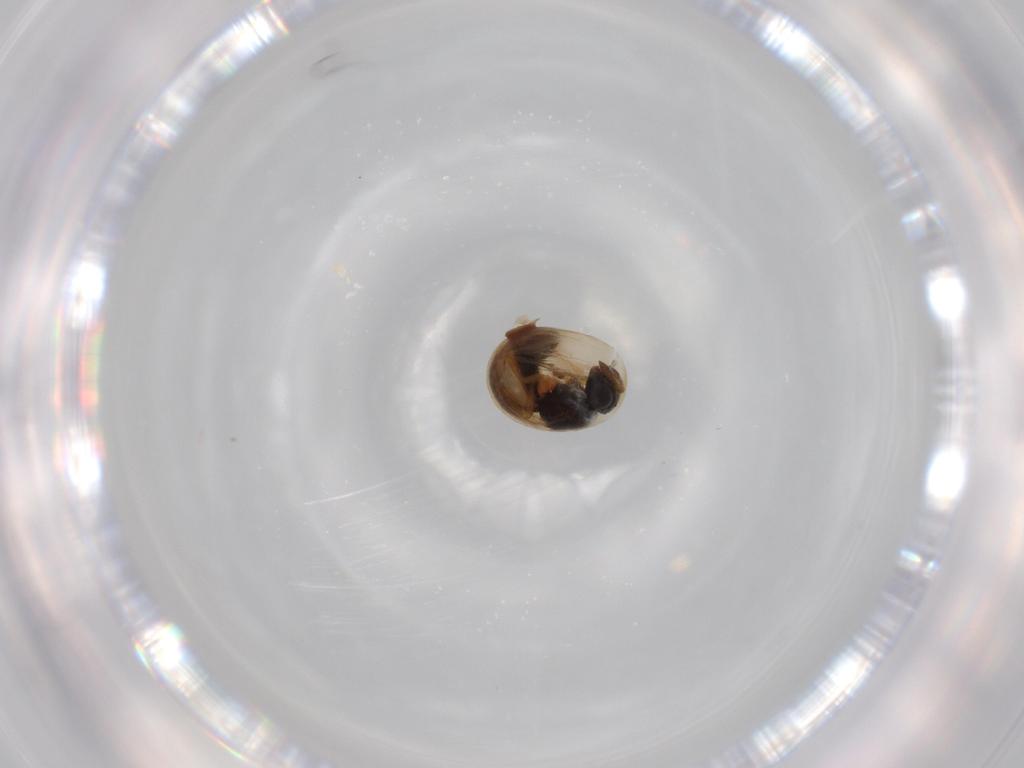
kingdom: Animalia
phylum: Arthropoda
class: Insecta
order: Hymenoptera
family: Scelionidae
